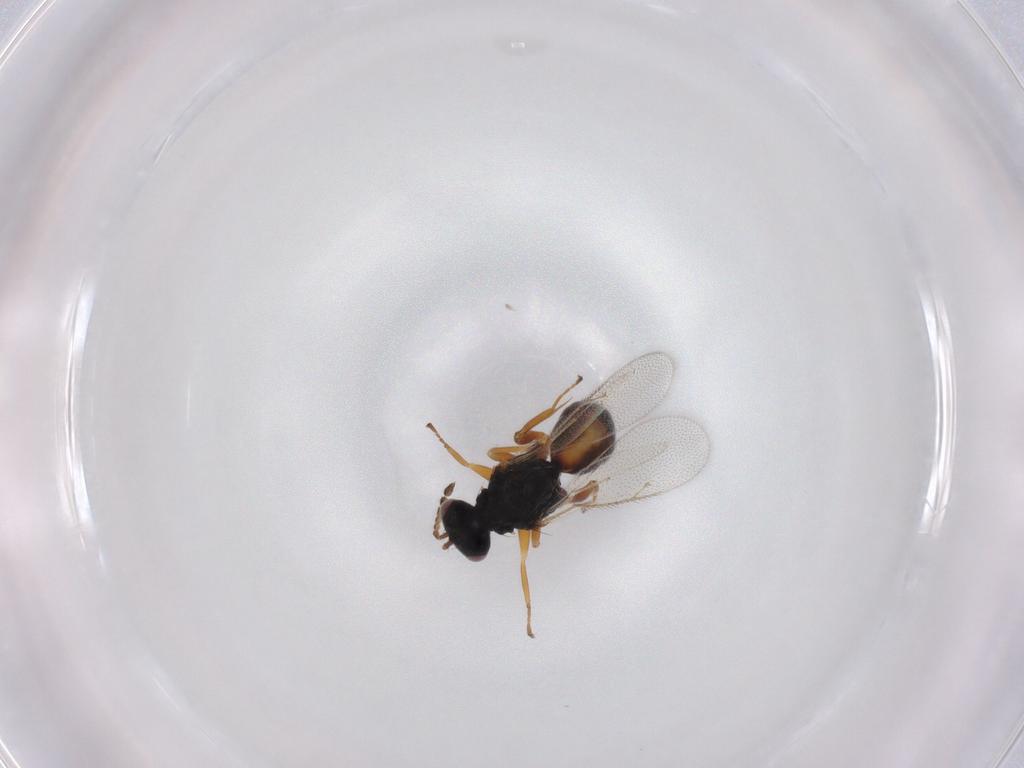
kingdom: Animalia
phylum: Arthropoda
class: Insecta
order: Hymenoptera
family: Eulophidae
